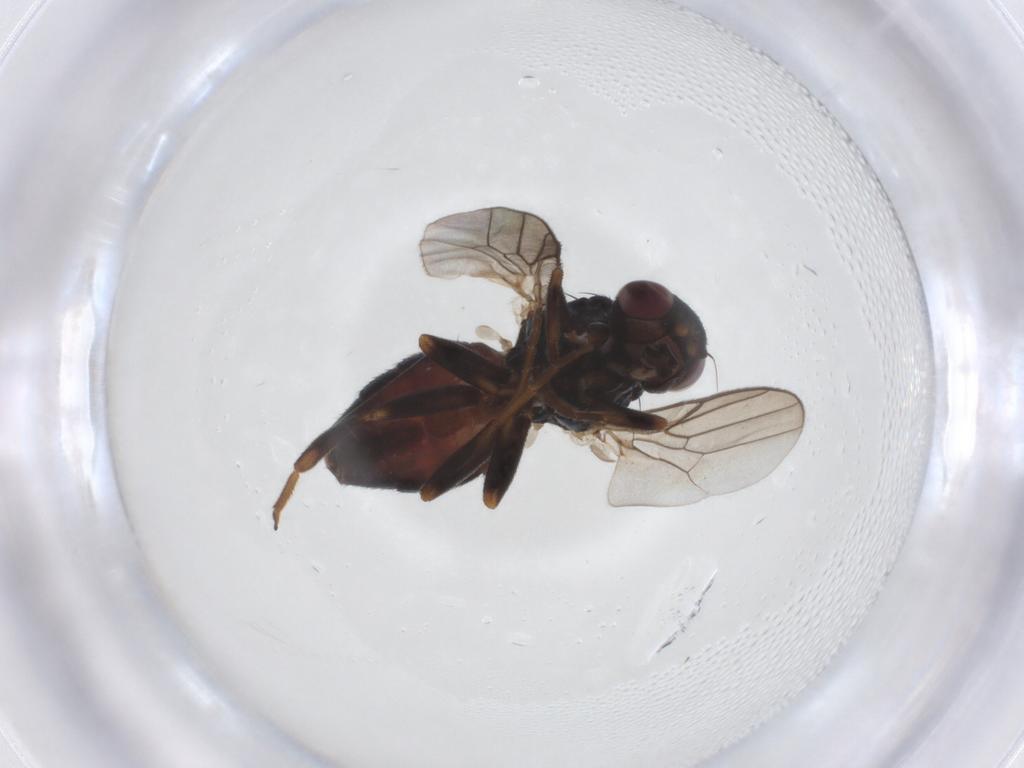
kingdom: Animalia
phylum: Arthropoda
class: Insecta
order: Diptera
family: Chloropidae
